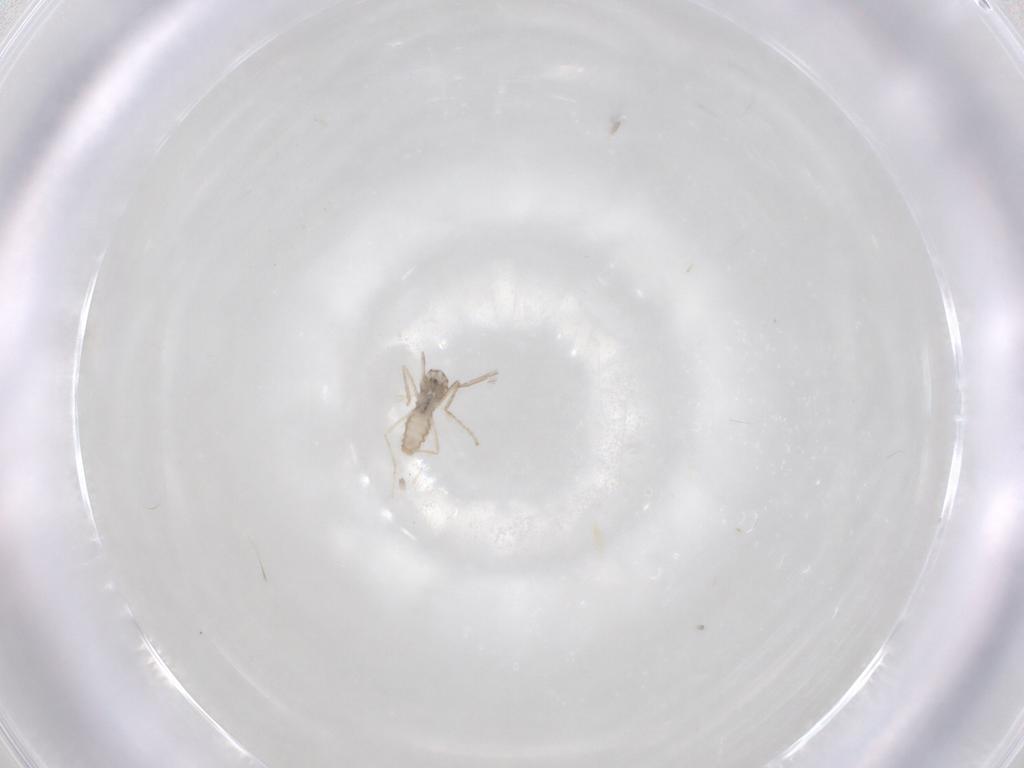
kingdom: Animalia
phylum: Arthropoda
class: Insecta
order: Diptera
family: Cecidomyiidae
